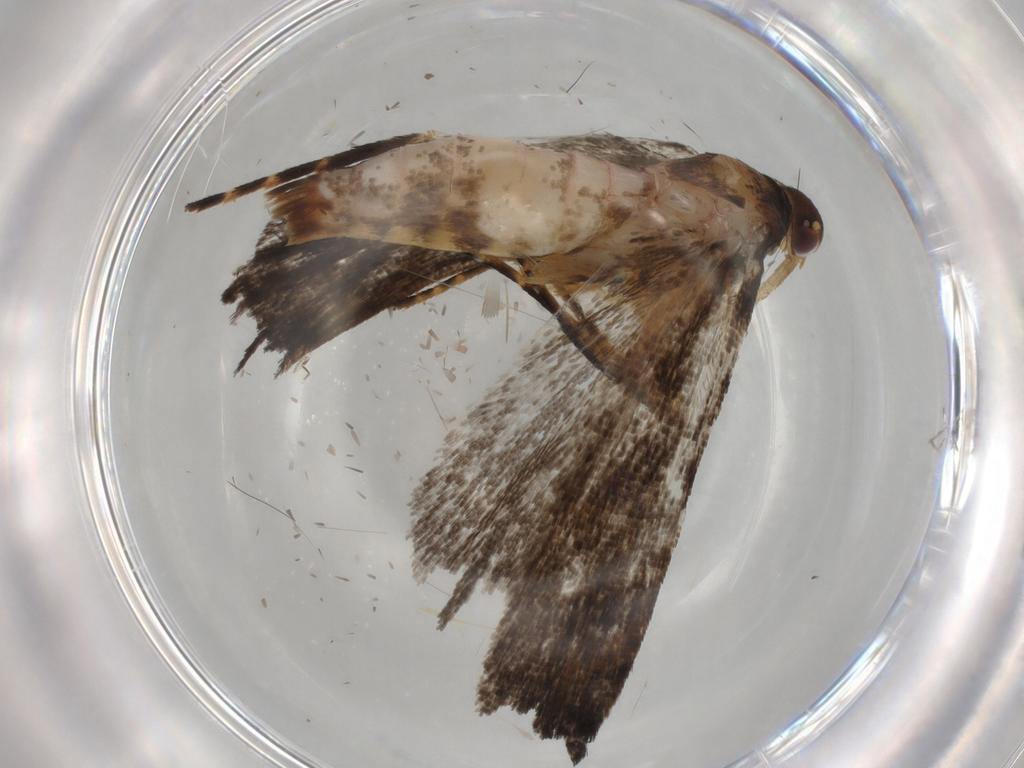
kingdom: Animalia
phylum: Arthropoda
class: Insecta
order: Lepidoptera
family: Crambidae
